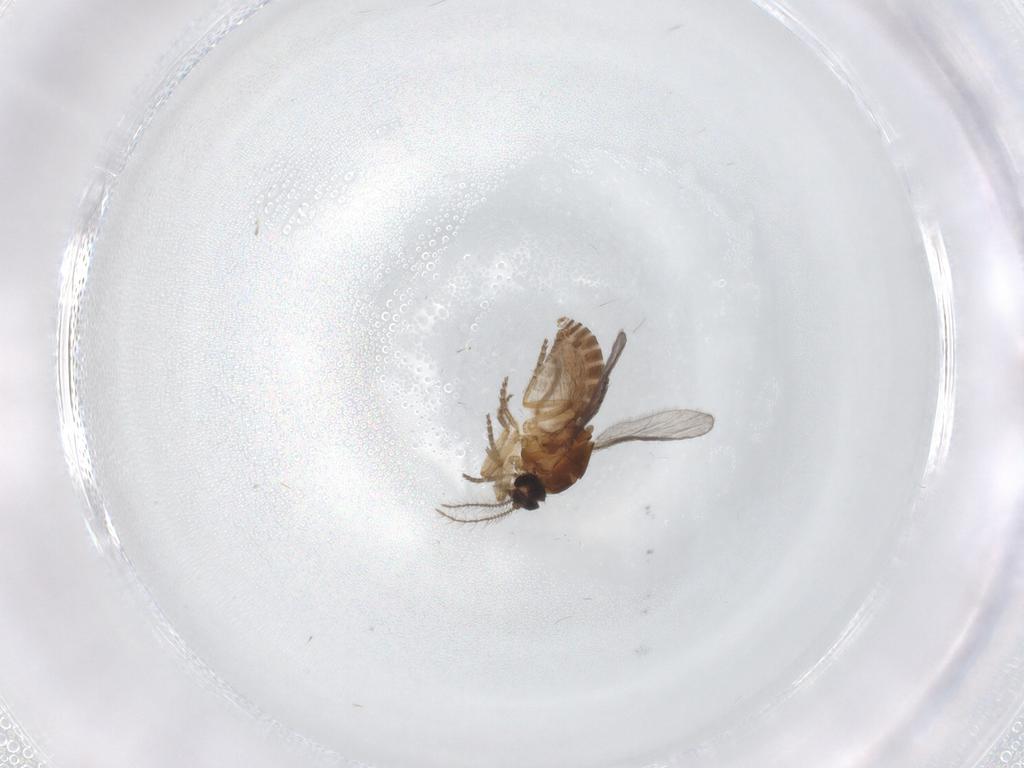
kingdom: Animalia
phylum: Arthropoda
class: Insecta
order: Diptera
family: Ceratopogonidae
